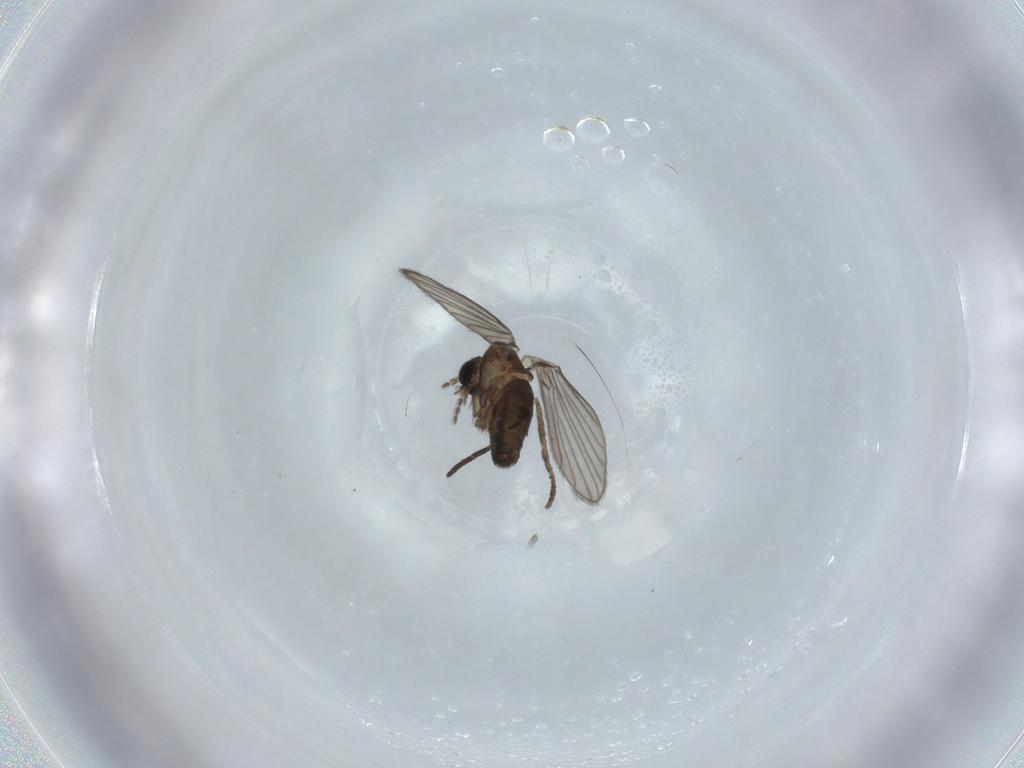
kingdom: Animalia
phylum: Arthropoda
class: Insecta
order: Diptera
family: Cecidomyiidae
